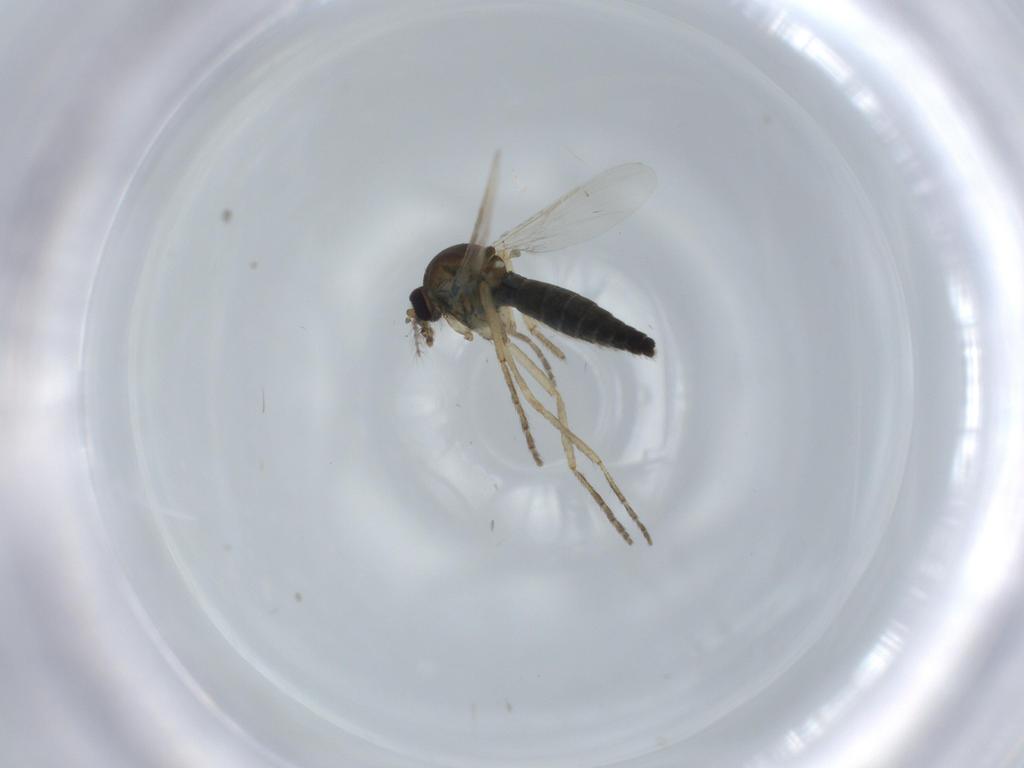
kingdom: Animalia
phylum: Arthropoda
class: Insecta
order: Diptera
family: Ceratopogonidae
